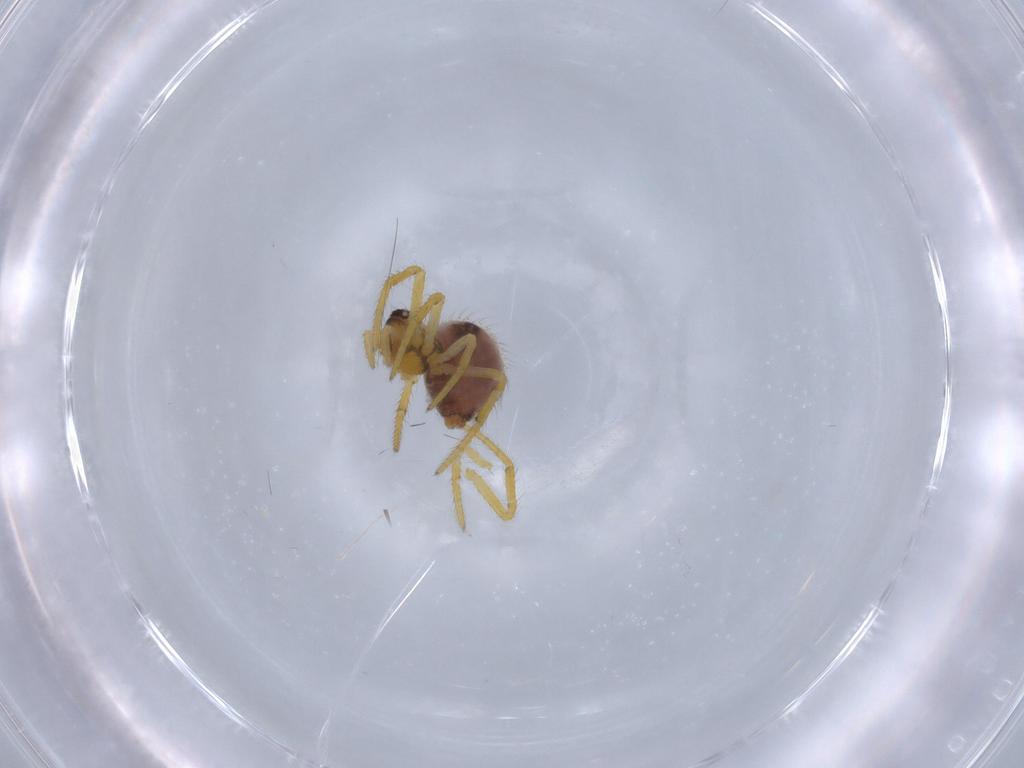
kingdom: Animalia
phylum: Arthropoda
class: Arachnida
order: Araneae
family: Theridiidae
